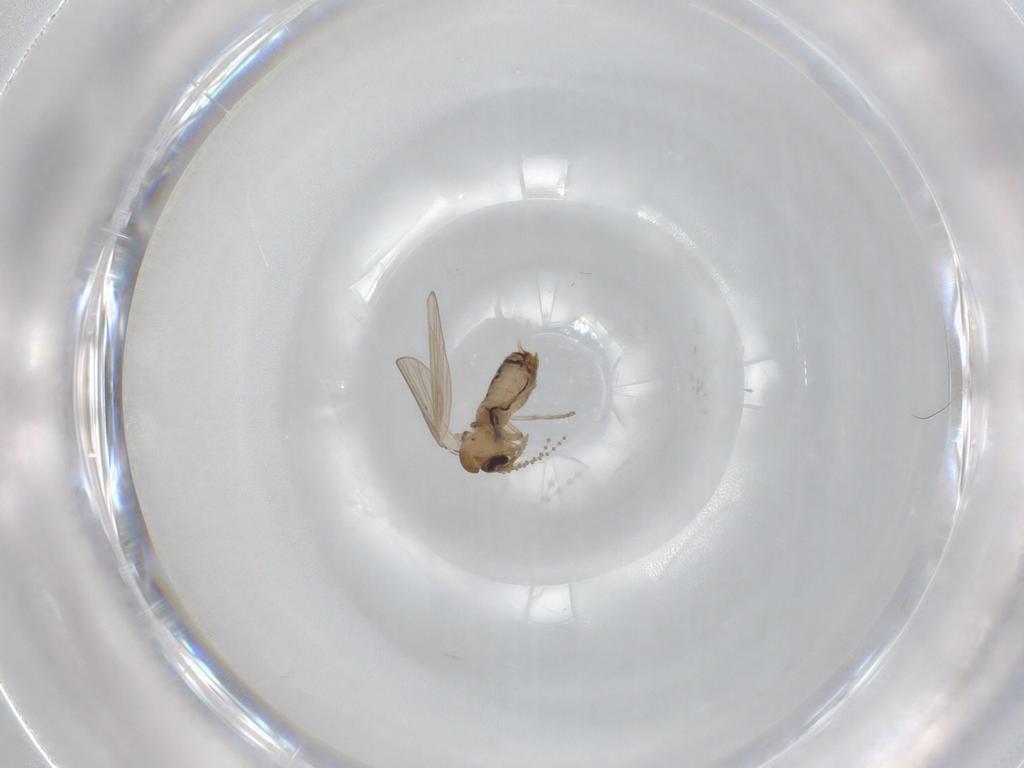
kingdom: Animalia
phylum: Arthropoda
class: Insecta
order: Diptera
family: Psychodidae
